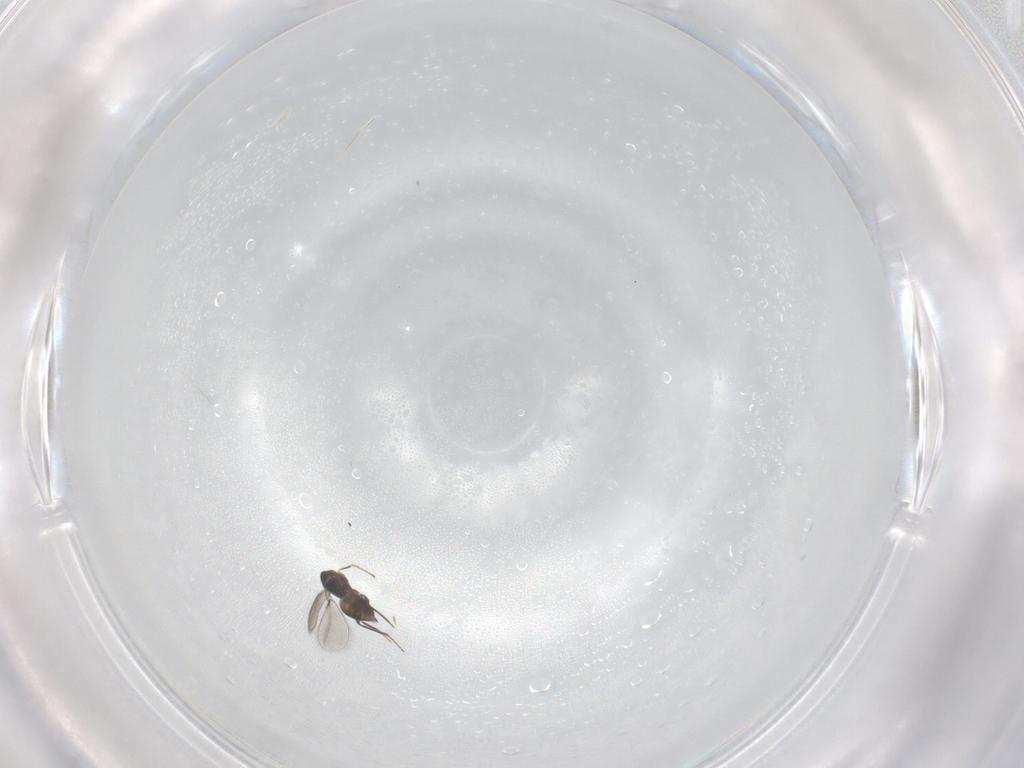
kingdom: Animalia
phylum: Arthropoda
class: Insecta
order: Hymenoptera
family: Mymaridae
